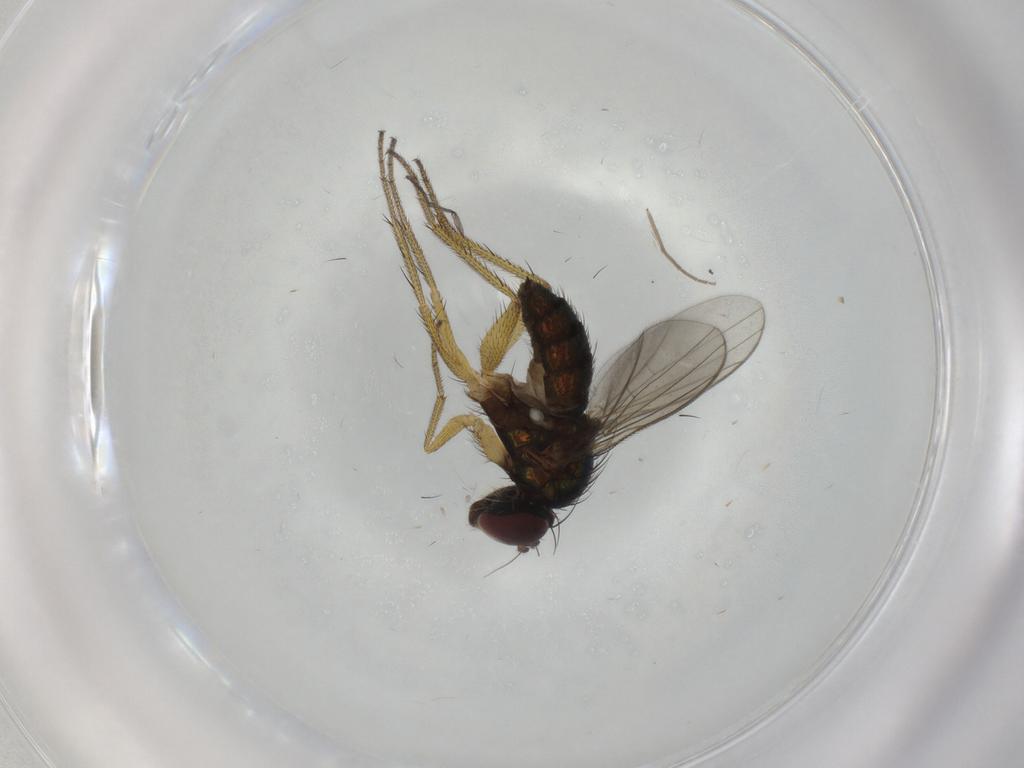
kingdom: Animalia
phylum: Arthropoda
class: Insecta
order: Diptera
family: Sciaridae
